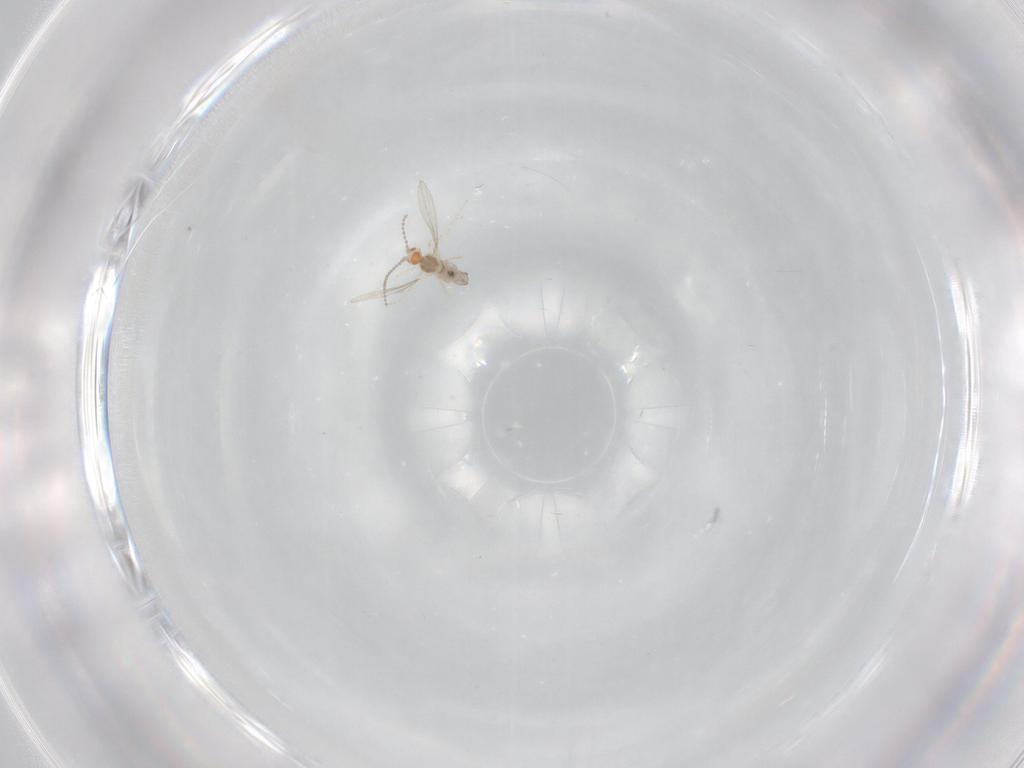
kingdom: Animalia
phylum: Arthropoda
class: Insecta
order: Diptera
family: Cecidomyiidae
